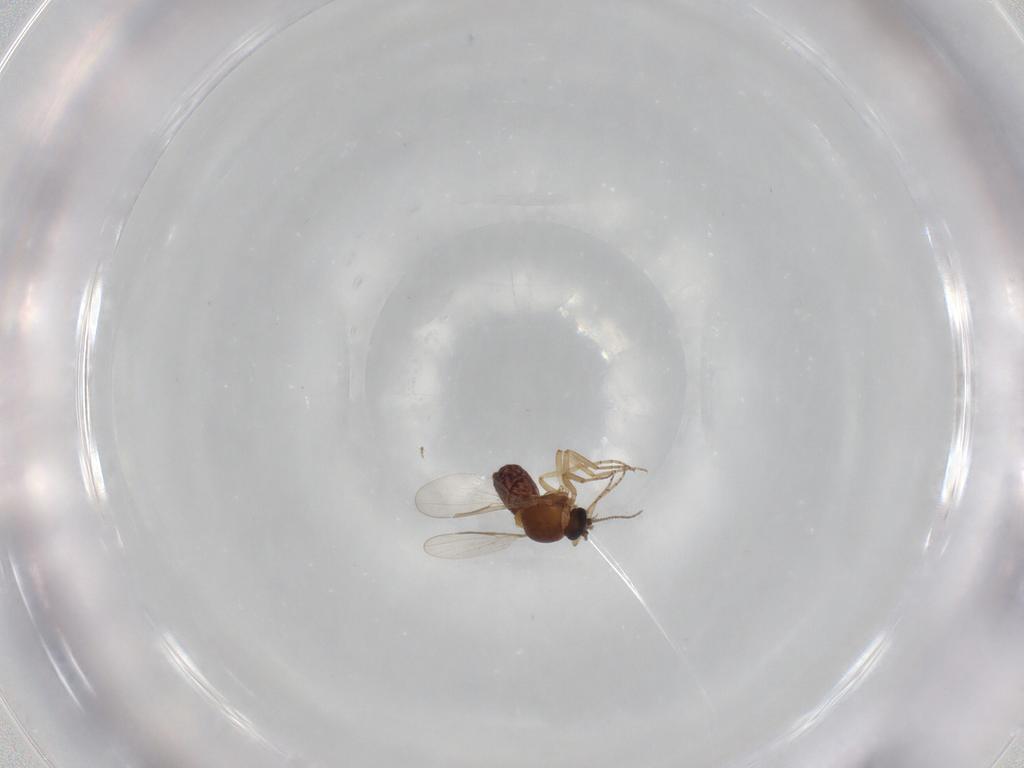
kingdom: Animalia
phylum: Arthropoda
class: Insecta
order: Diptera
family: Ceratopogonidae
